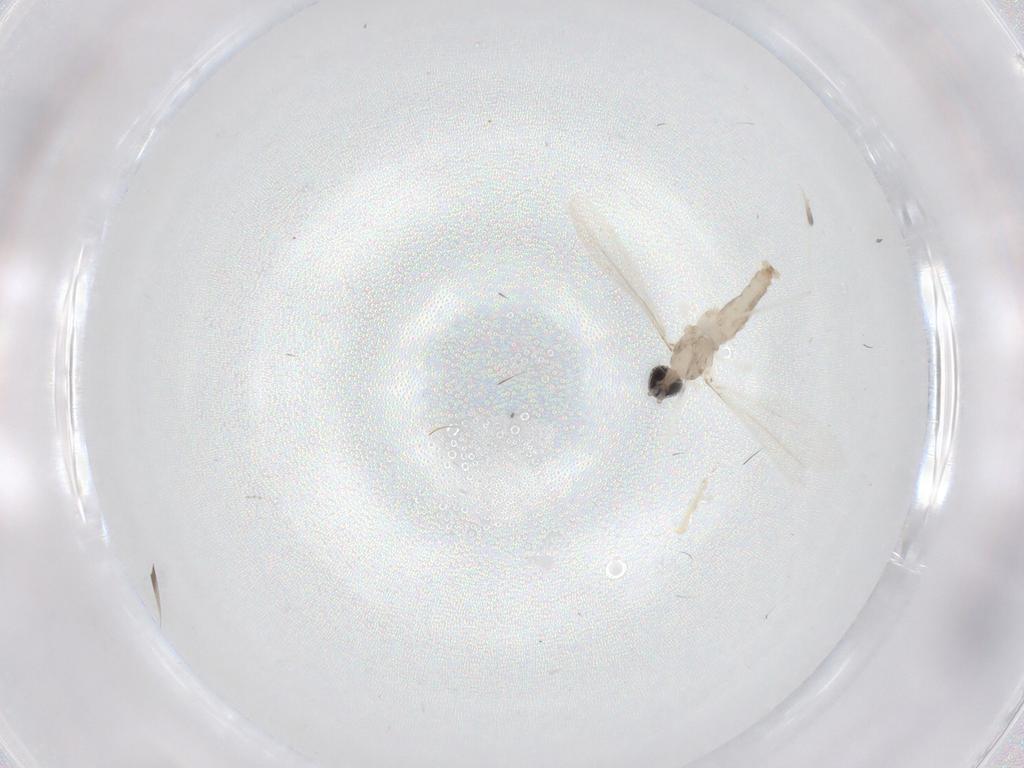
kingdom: Animalia
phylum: Arthropoda
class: Insecta
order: Diptera
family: Cecidomyiidae
